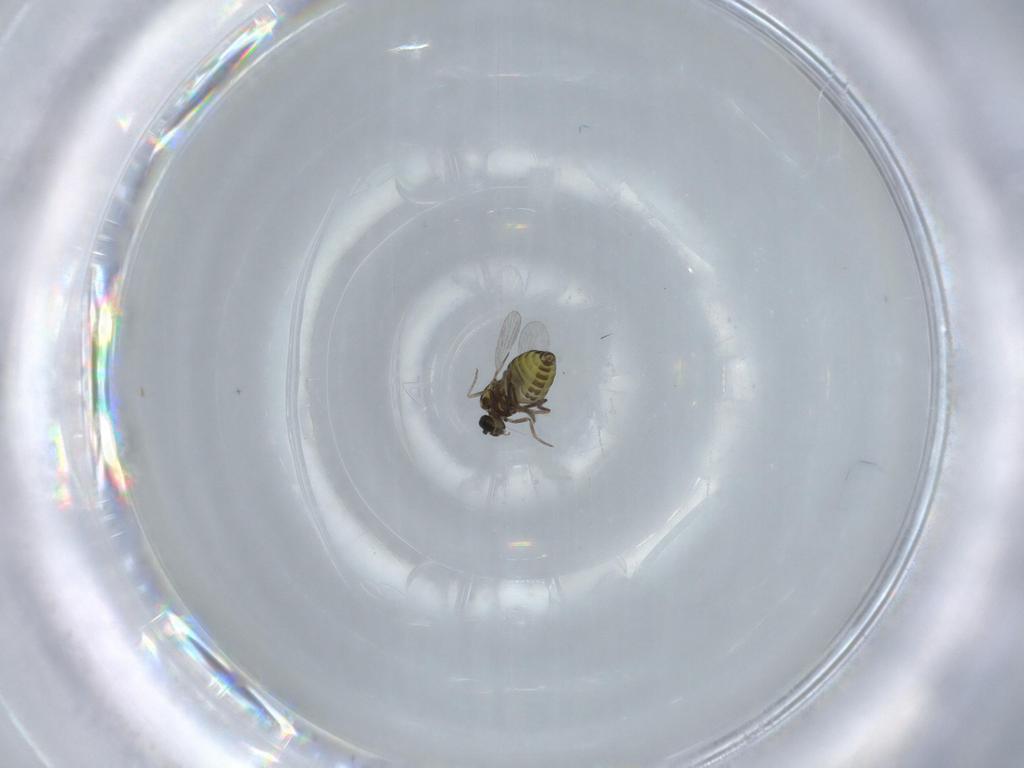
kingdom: Animalia
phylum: Arthropoda
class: Insecta
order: Diptera
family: Ceratopogonidae
